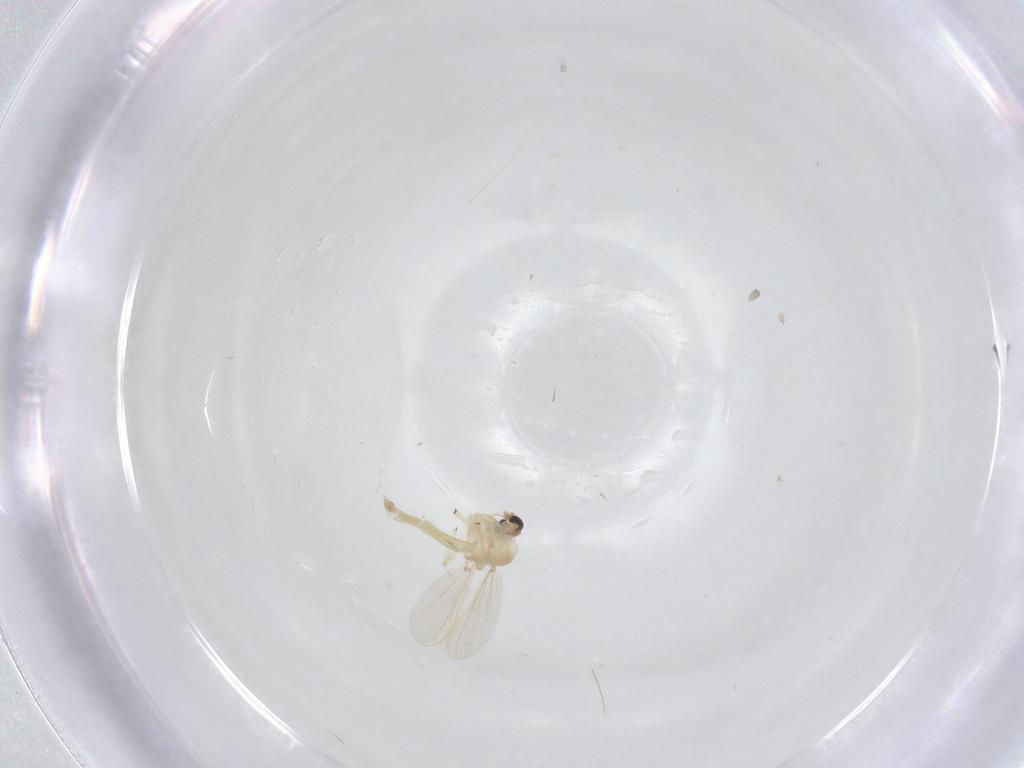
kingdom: Animalia
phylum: Arthropoda
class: Insecta
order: Diptera
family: Chironomidae
